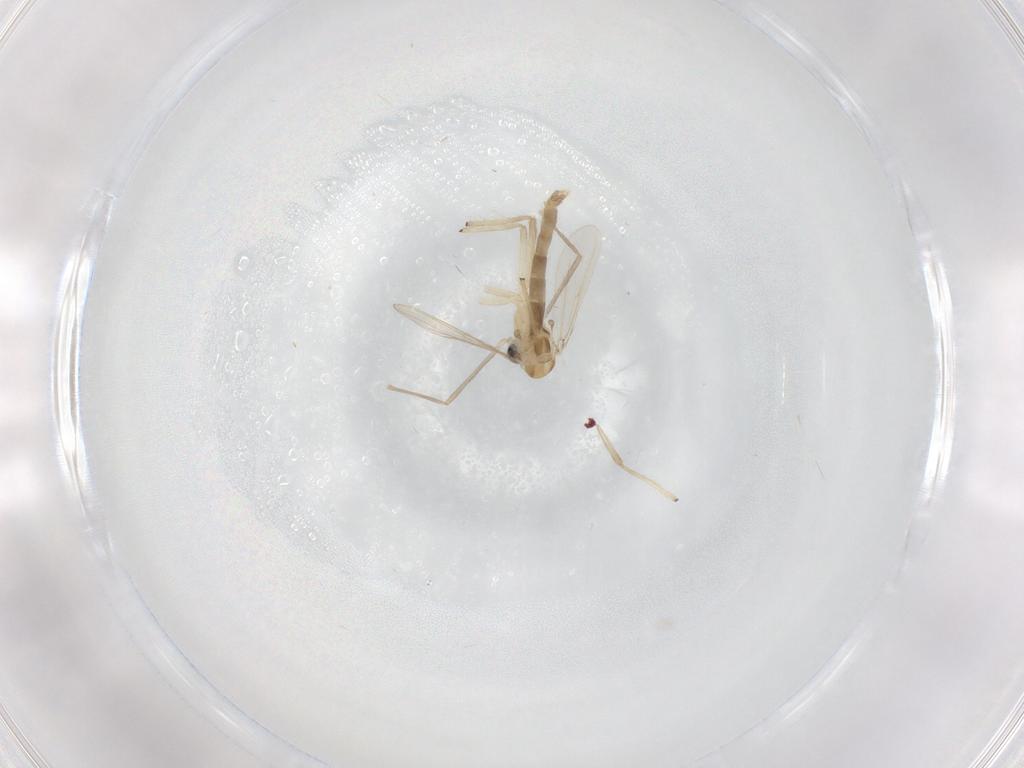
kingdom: Animalia
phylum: Arthropoda
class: Insecta
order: Diptera
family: Chironomidae
